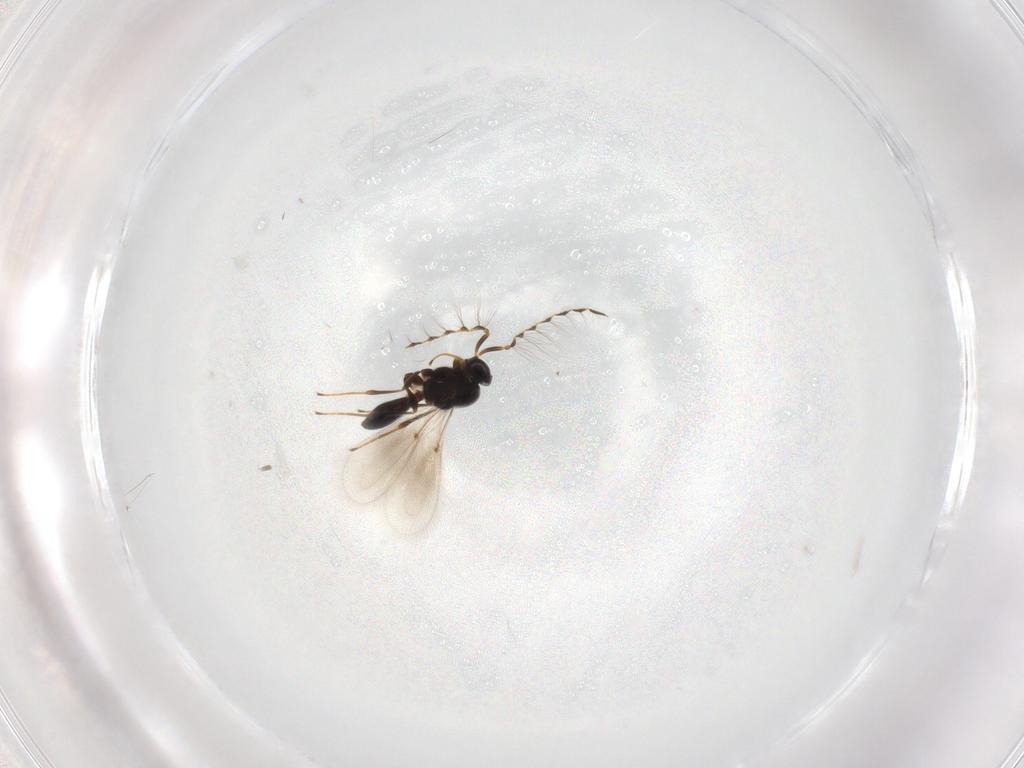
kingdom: Animalia
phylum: Arthropoda
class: Insecta
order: Hymenoptera
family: Platygastridae
